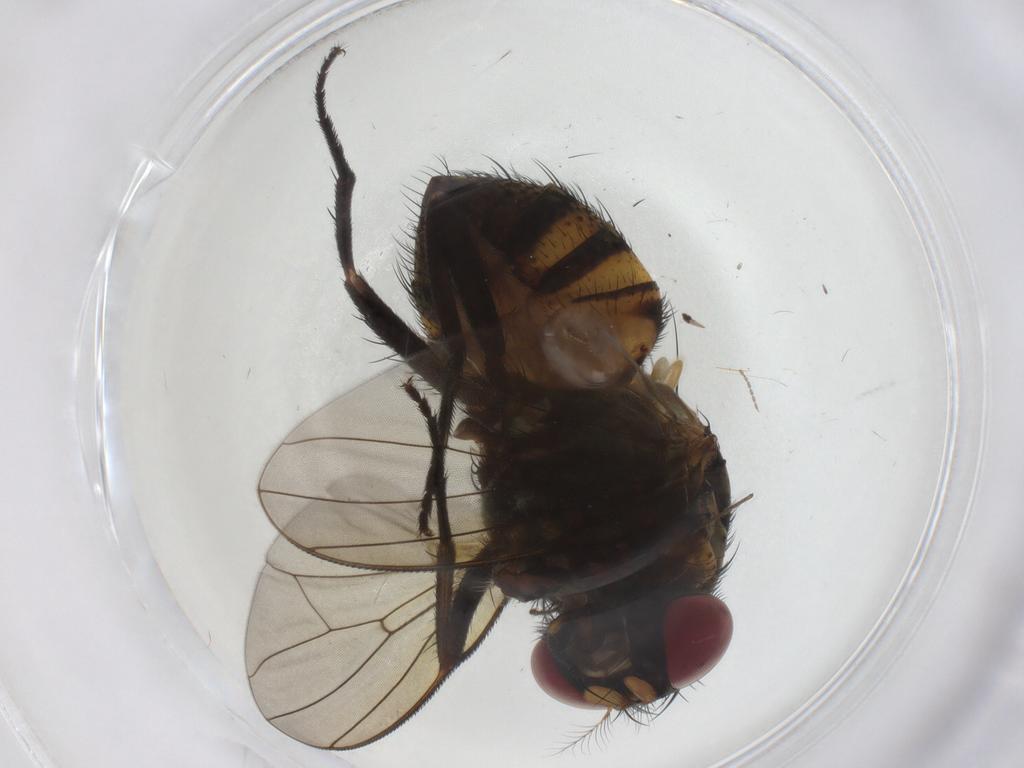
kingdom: Animalia
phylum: Arthropoda
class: Insecta
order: Diptera
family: Muscidae
